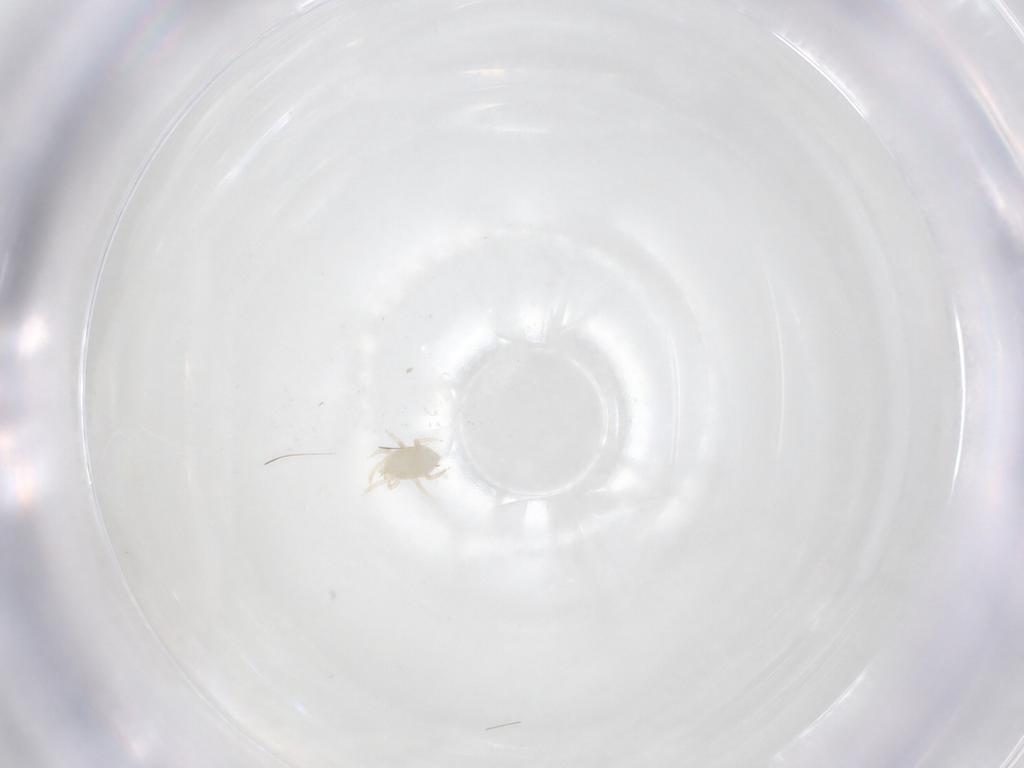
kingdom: Animalia
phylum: Arthropoda
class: Arachnida
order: Mesostigmata
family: Melicharidae
